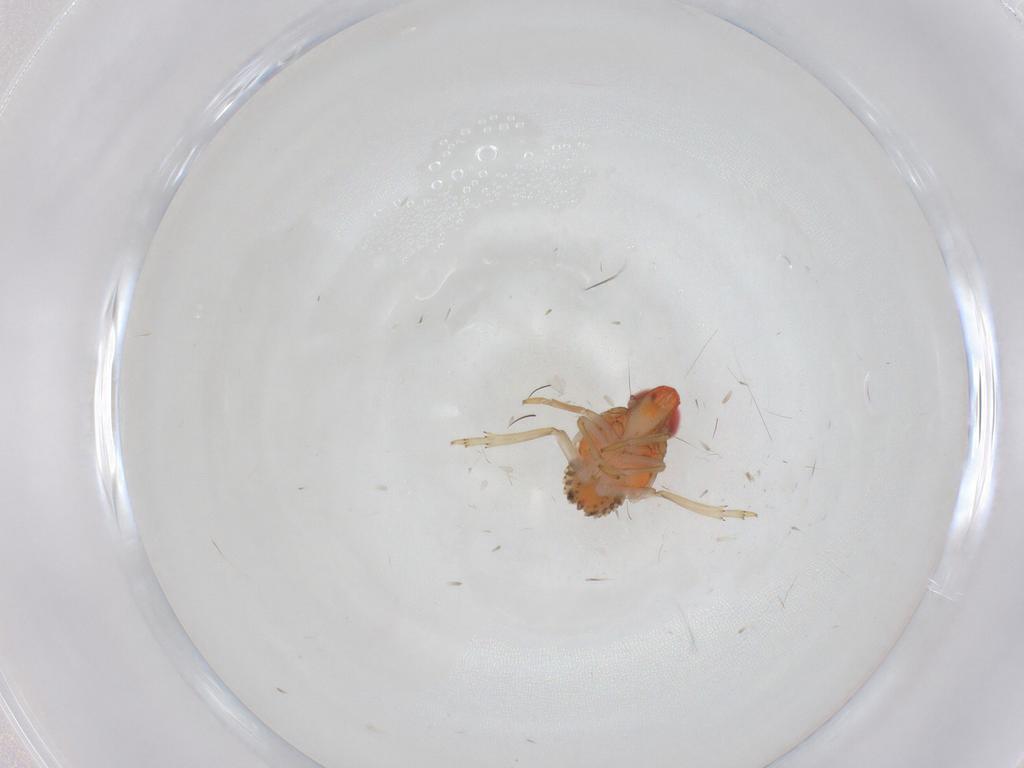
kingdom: Animalia
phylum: Arthropoda
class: Insecta
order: Hemiptera
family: Fulgoroidea_incertae_sedis
